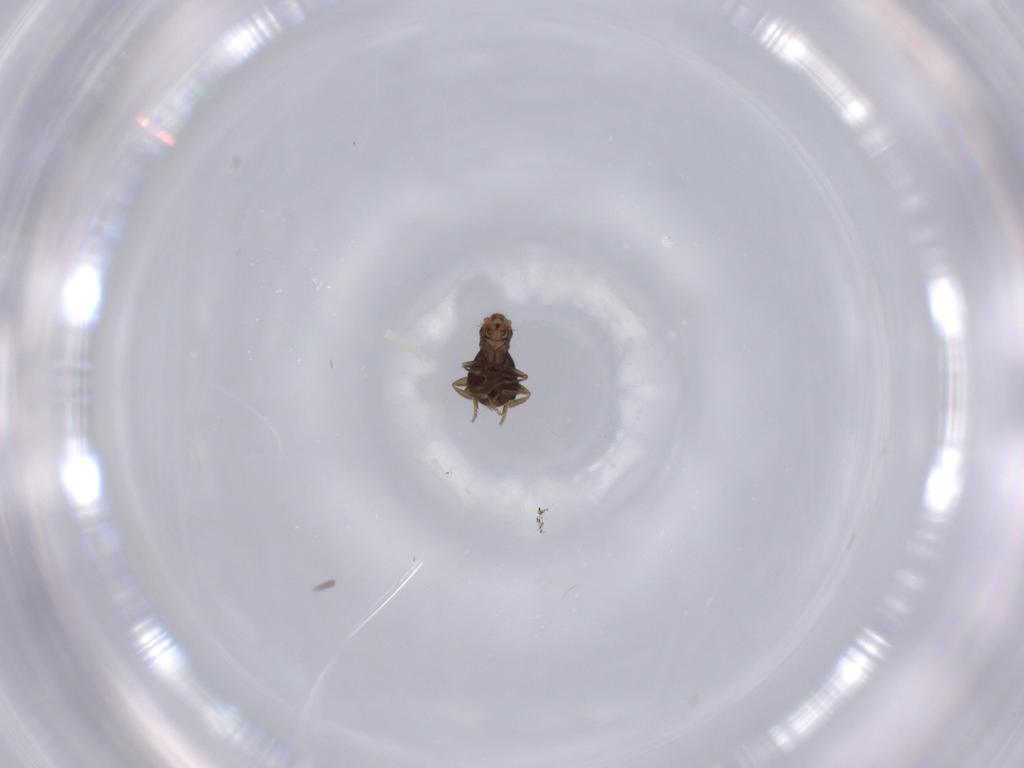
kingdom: Animalia
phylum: Arthropoda
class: Insecta
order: Diptera
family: Phoridae
